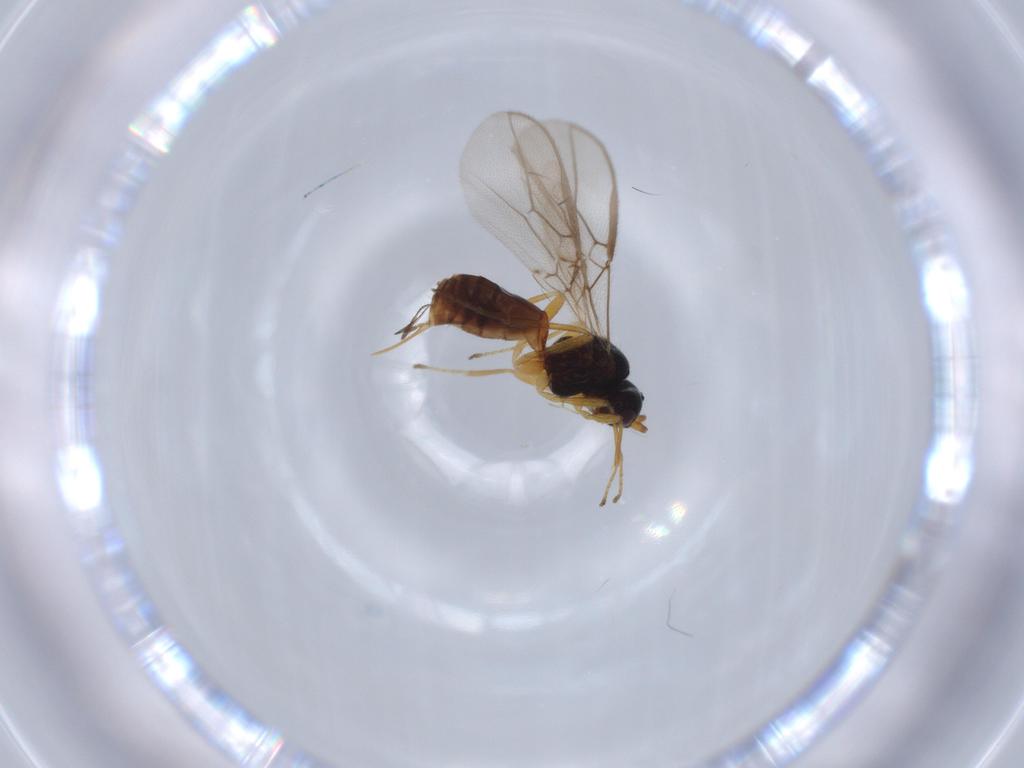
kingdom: Animalia
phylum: Arthropoda
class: Insecta
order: Hymenoptera
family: Braconidae
